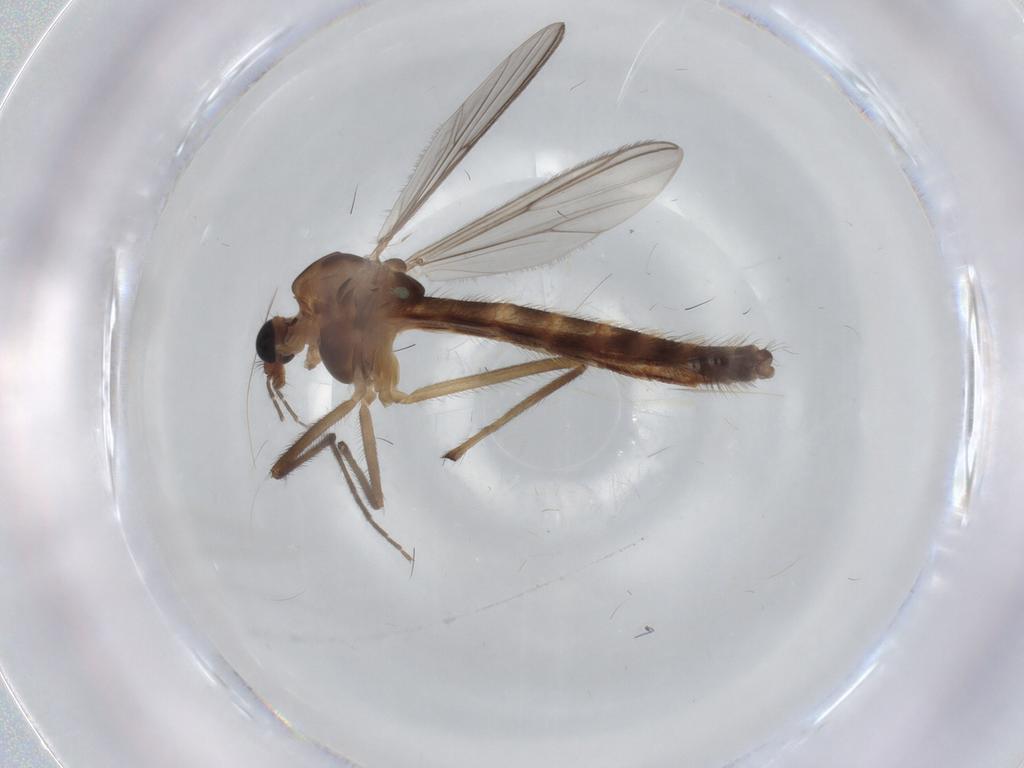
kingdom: Animalia
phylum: Arthropoda
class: Insecta
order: Diptera
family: Chironomidae
